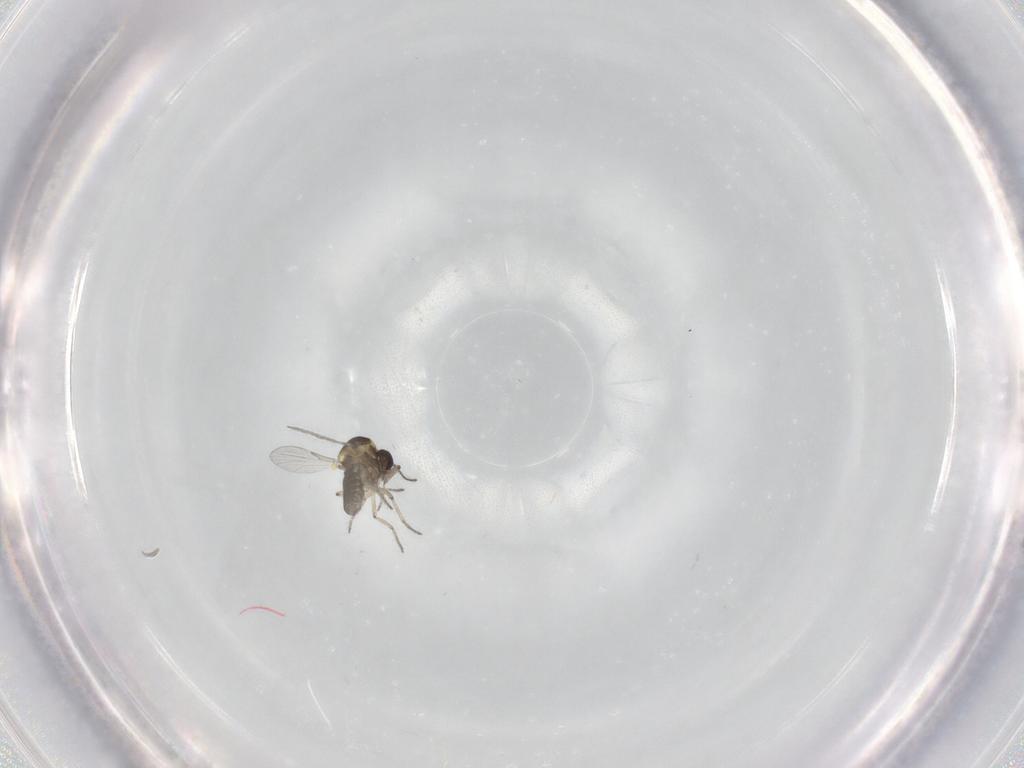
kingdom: Animalia
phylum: Arthropoda
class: Insecta
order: Diptera
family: Ceratopogonidae
